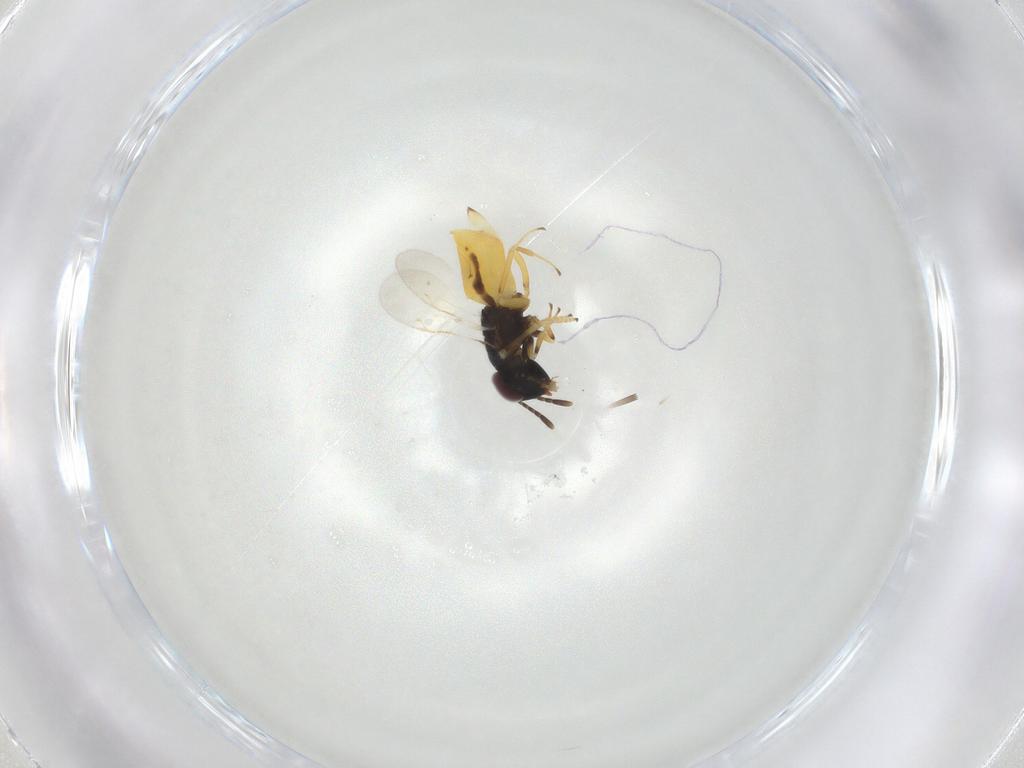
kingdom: Animalia
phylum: Arthropoda
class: Insecta
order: Hymenoptera
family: Encyrtidae
